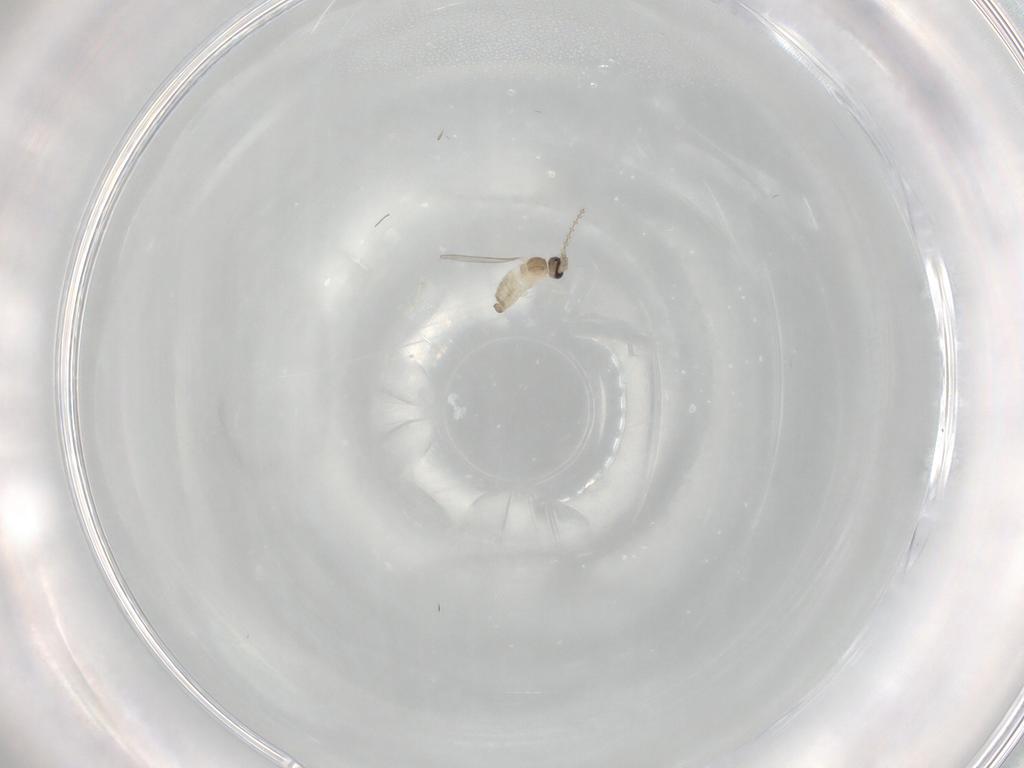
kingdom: Animalia
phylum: Arthropoda
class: Insecta
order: Diptera
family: Cecidomyiidae
